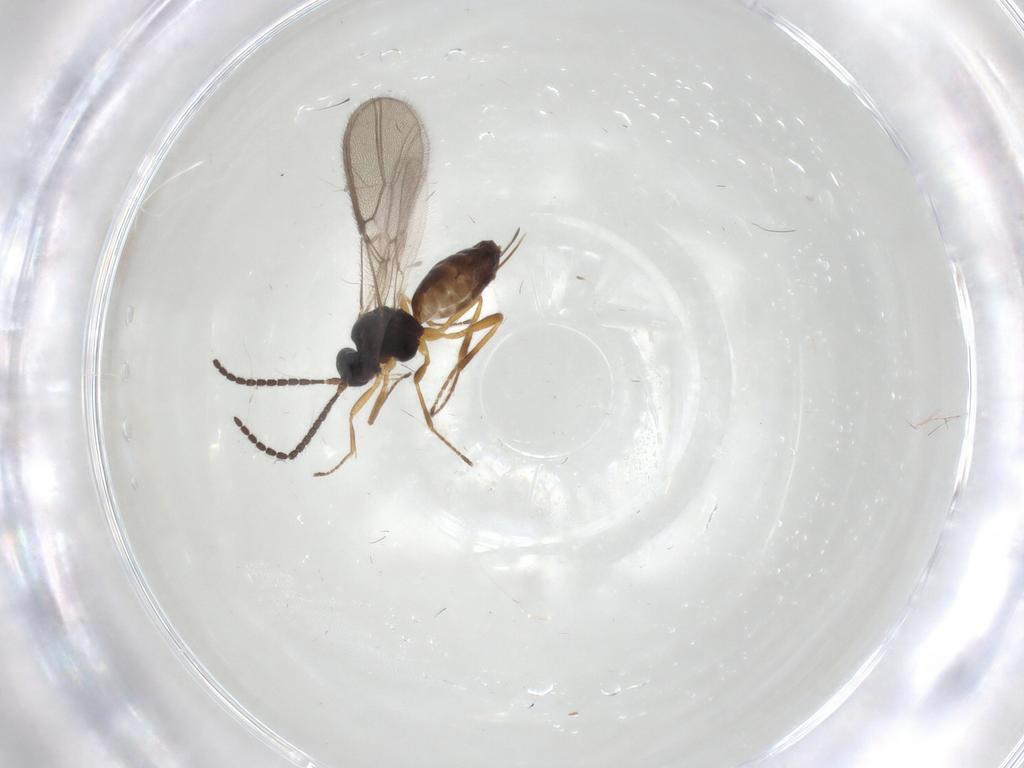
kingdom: Animalia
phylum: Arthropoda
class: Insecta
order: Hymenoptera
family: Braconidae
